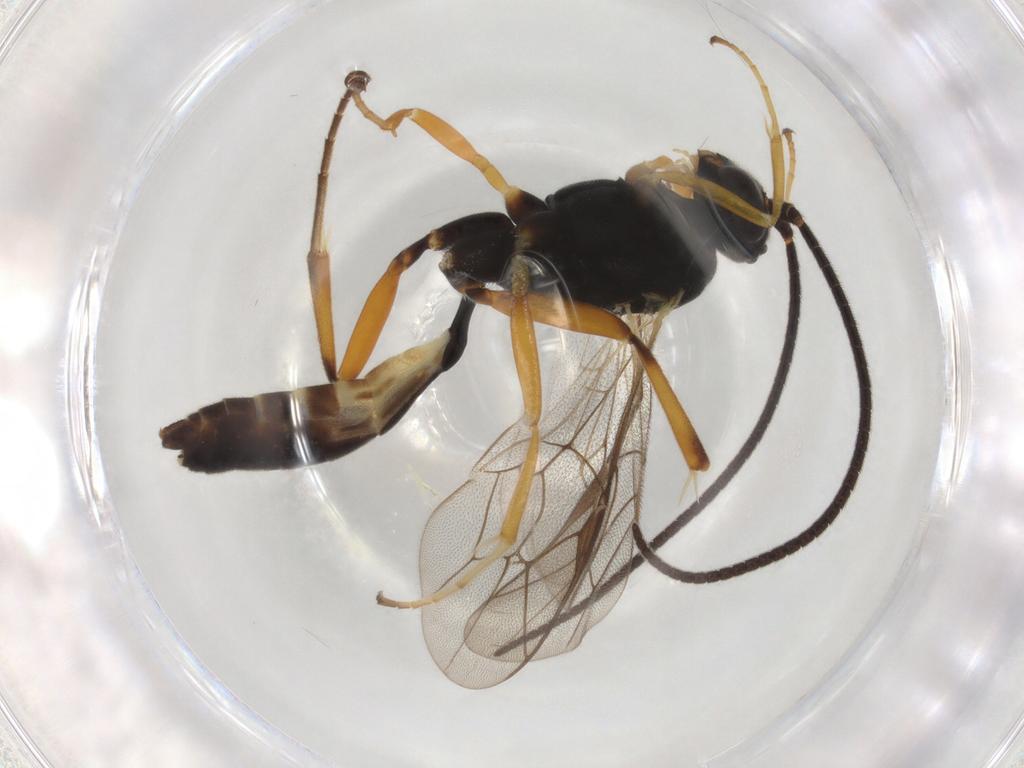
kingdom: Animalia
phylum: Arthropoda
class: Insecta
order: Hymenoptera
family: Ichneumonidae
